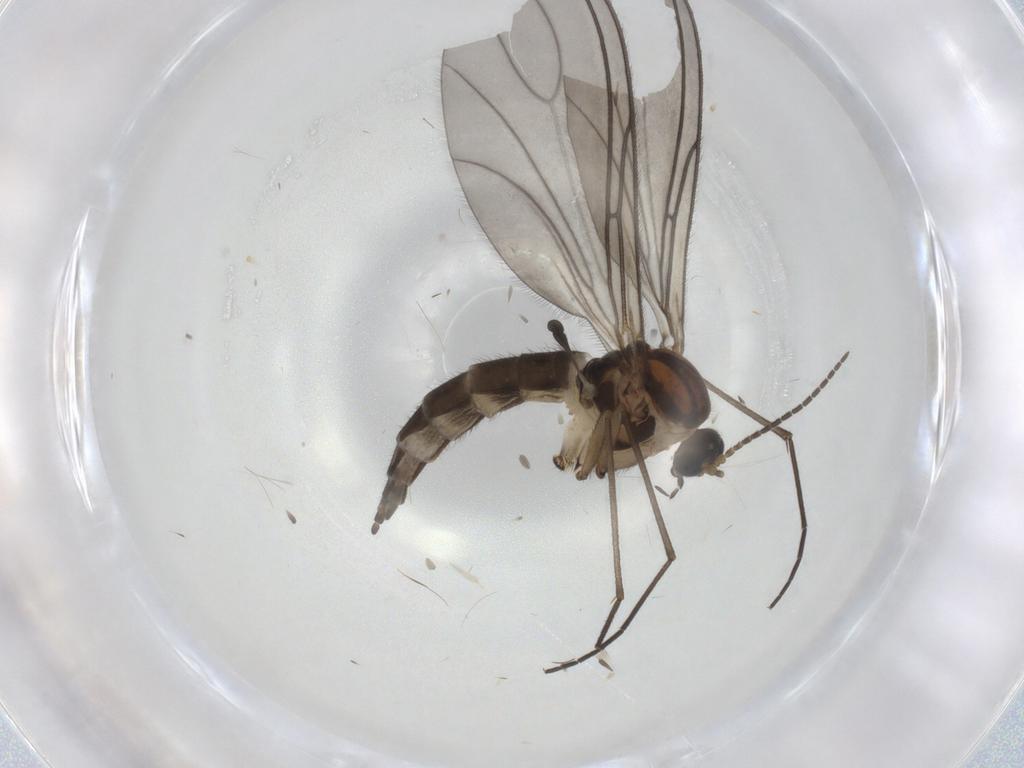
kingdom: Animalia
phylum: Arthropoda
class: Insecta
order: Diptera
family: Sciaridae
